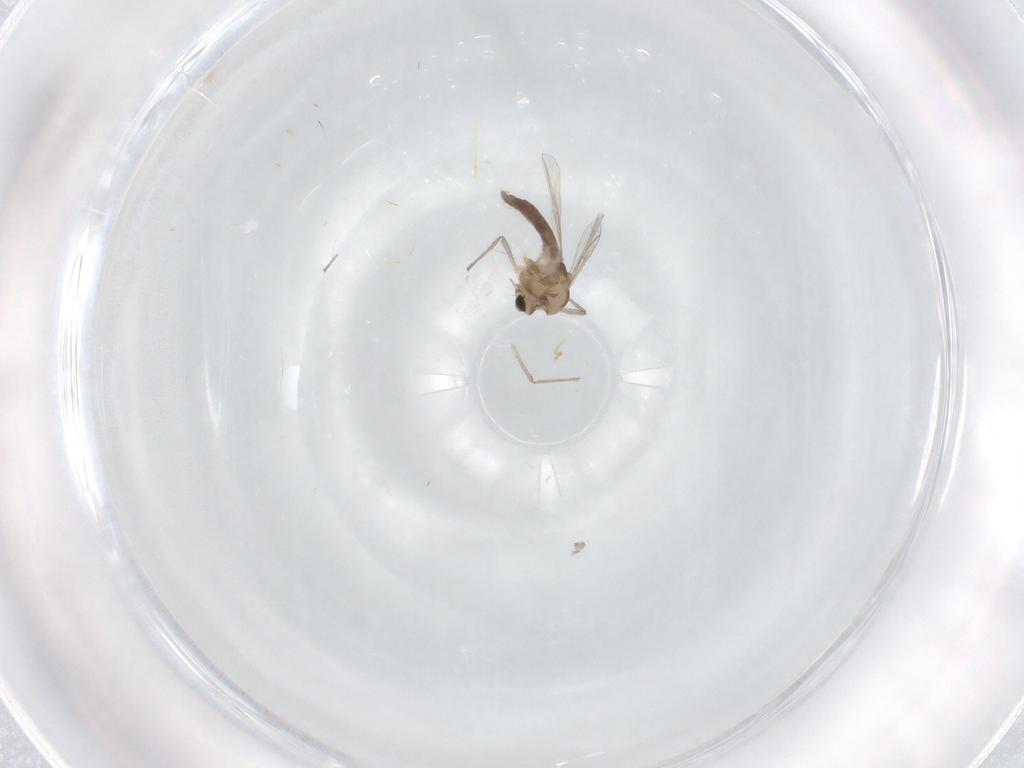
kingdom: Animalia
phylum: Arthropoda
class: Insecta
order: Diptera
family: Chironomidae
